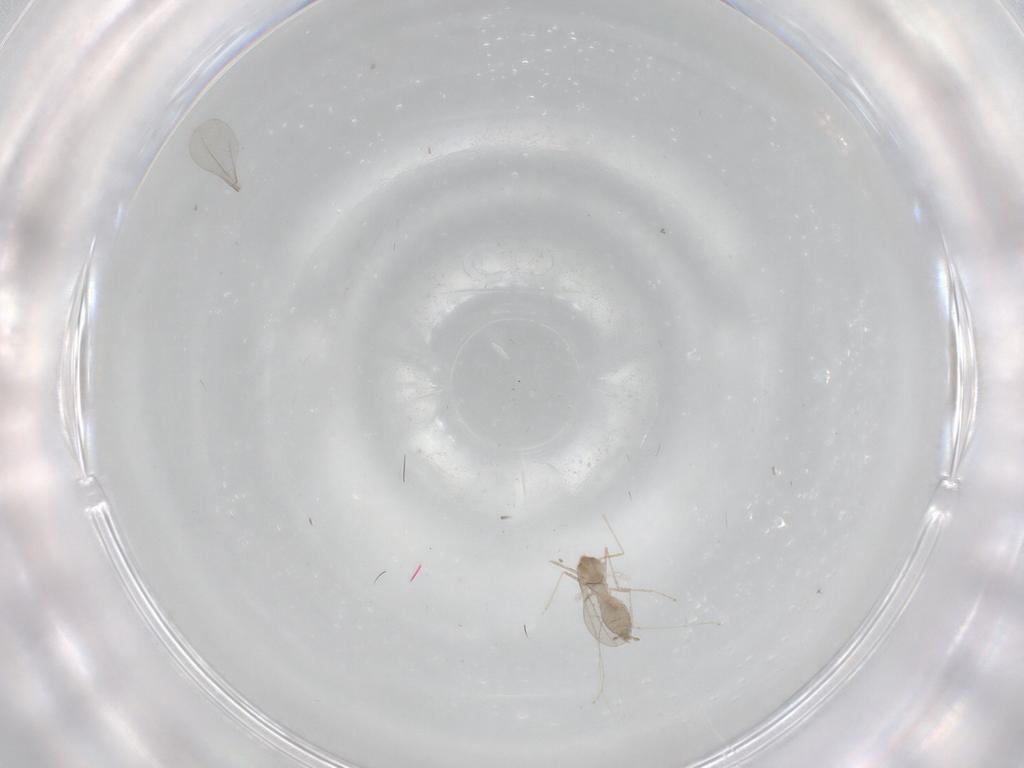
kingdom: Animalia
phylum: Arthropoda
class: Insecta
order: Diptera
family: Cecidomyiidae
